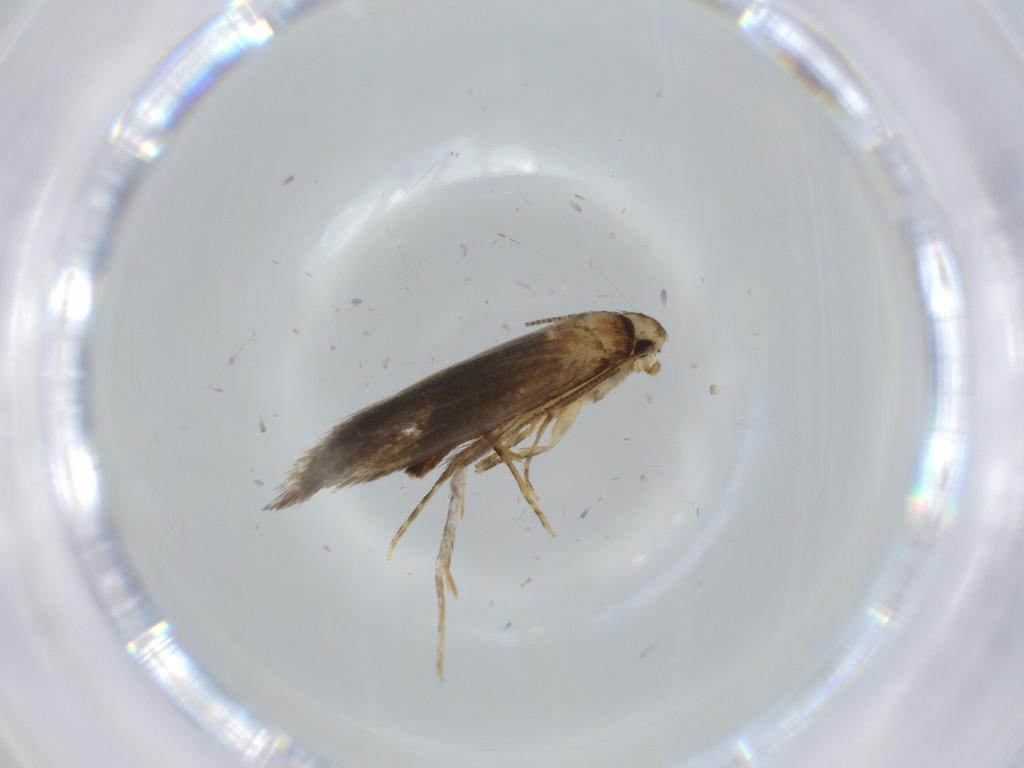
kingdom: Animalia
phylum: Arthropoda
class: Insecta
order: Lepidoptera
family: Tineidae
